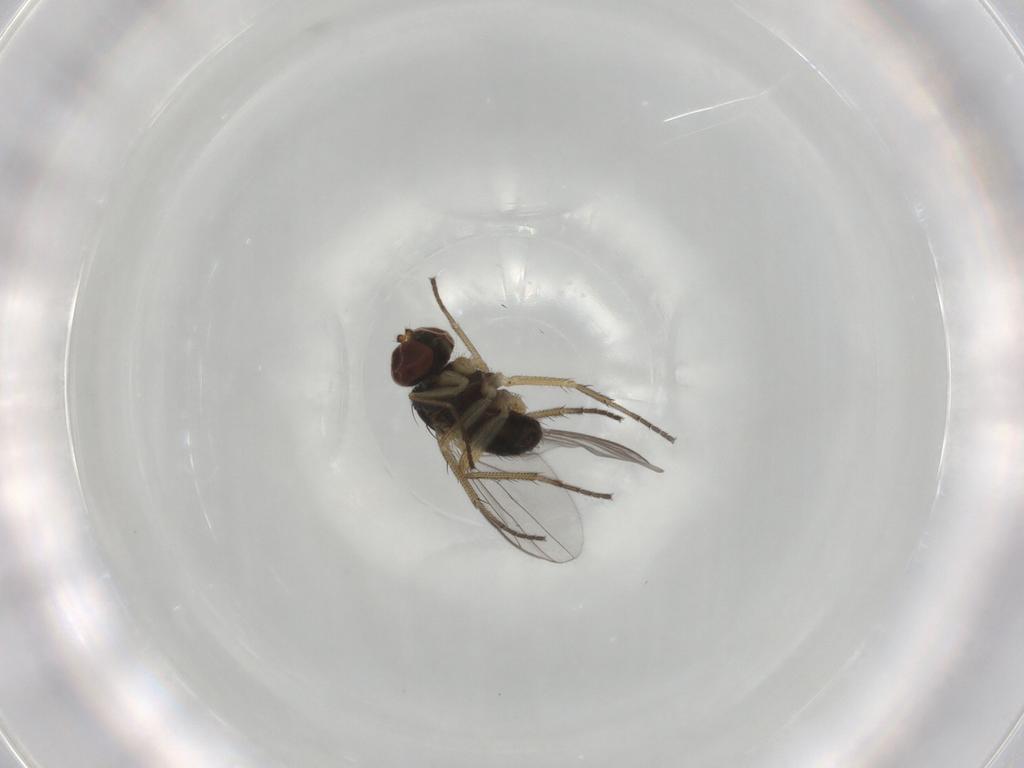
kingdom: Animalia
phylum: Arthropoda
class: Insecta
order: Diptera
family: Dolichopodidae
